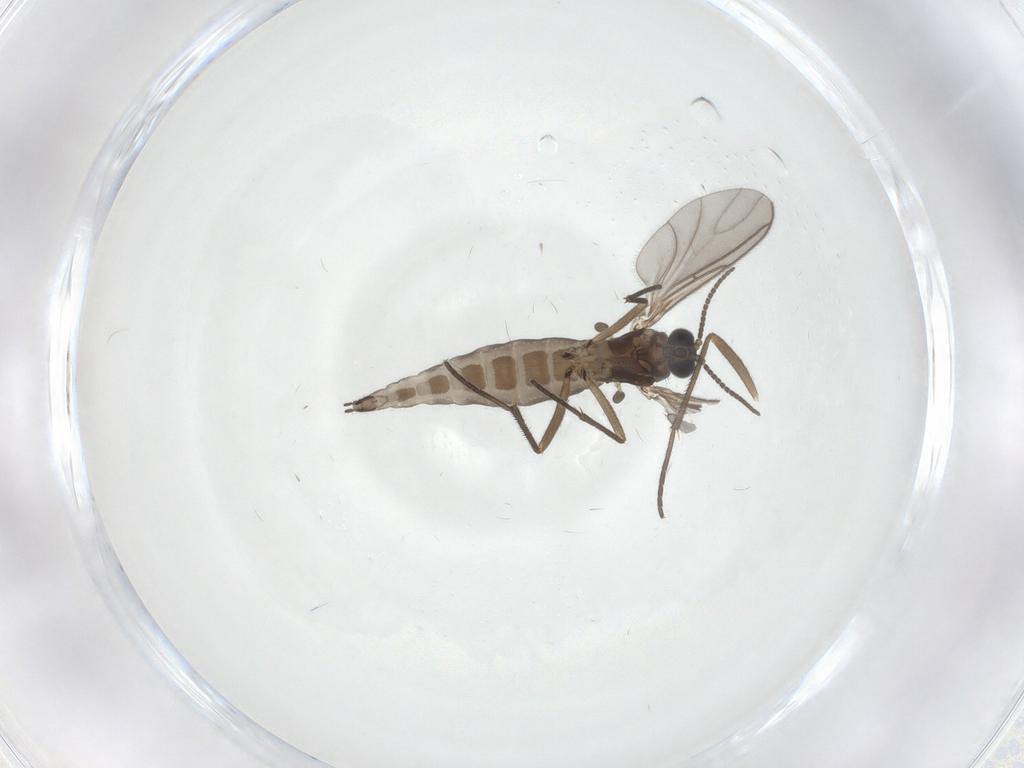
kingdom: Animalia
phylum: Arthropoda
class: Insecta
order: Diptera
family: Sciaridae
